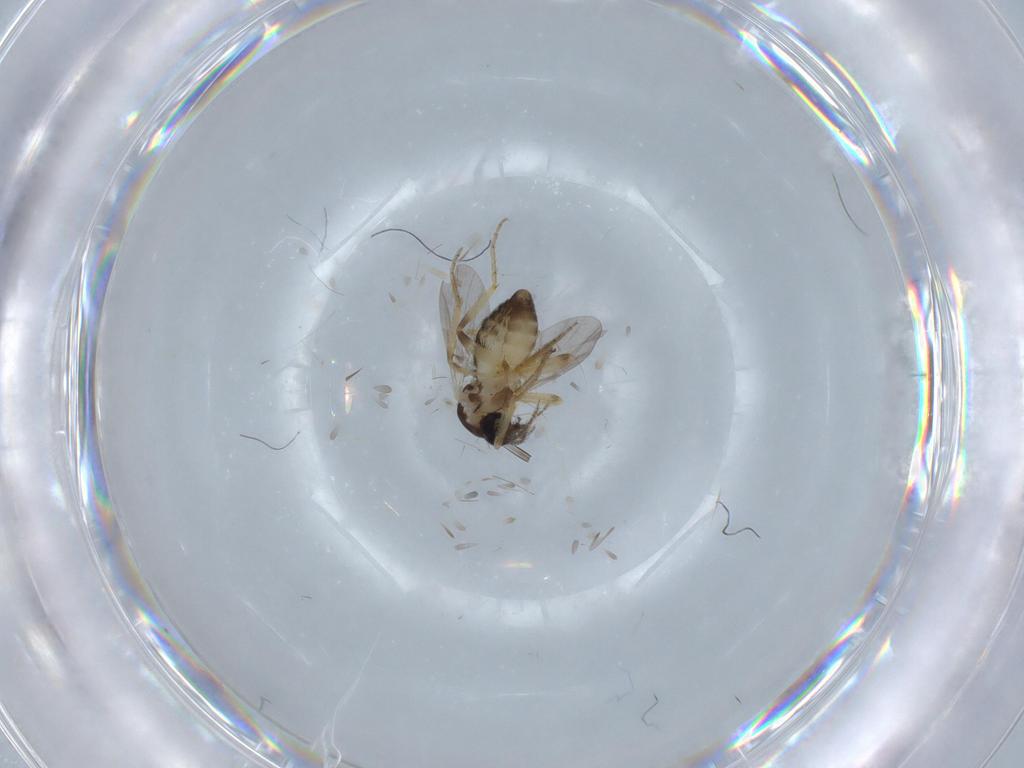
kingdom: Animalia
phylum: Arthropoda
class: Insecta
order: Diptera
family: Ceratopogonidae
